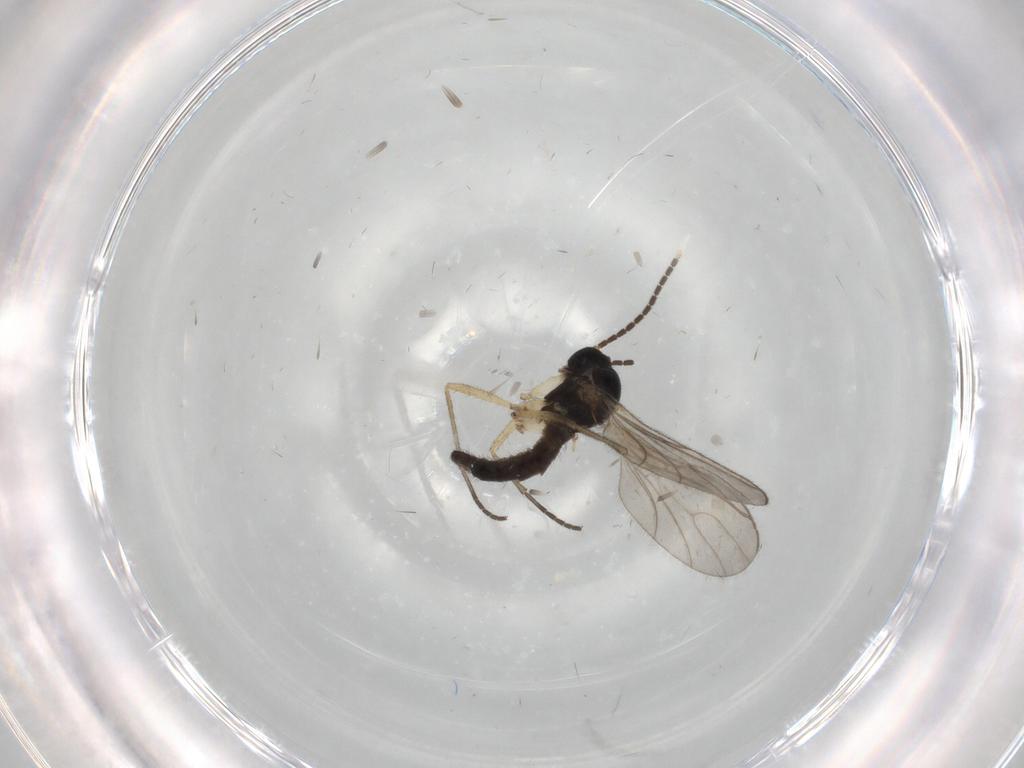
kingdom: Animalia
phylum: Arthropoda
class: Insecta
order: Diptera
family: Sciaridae
